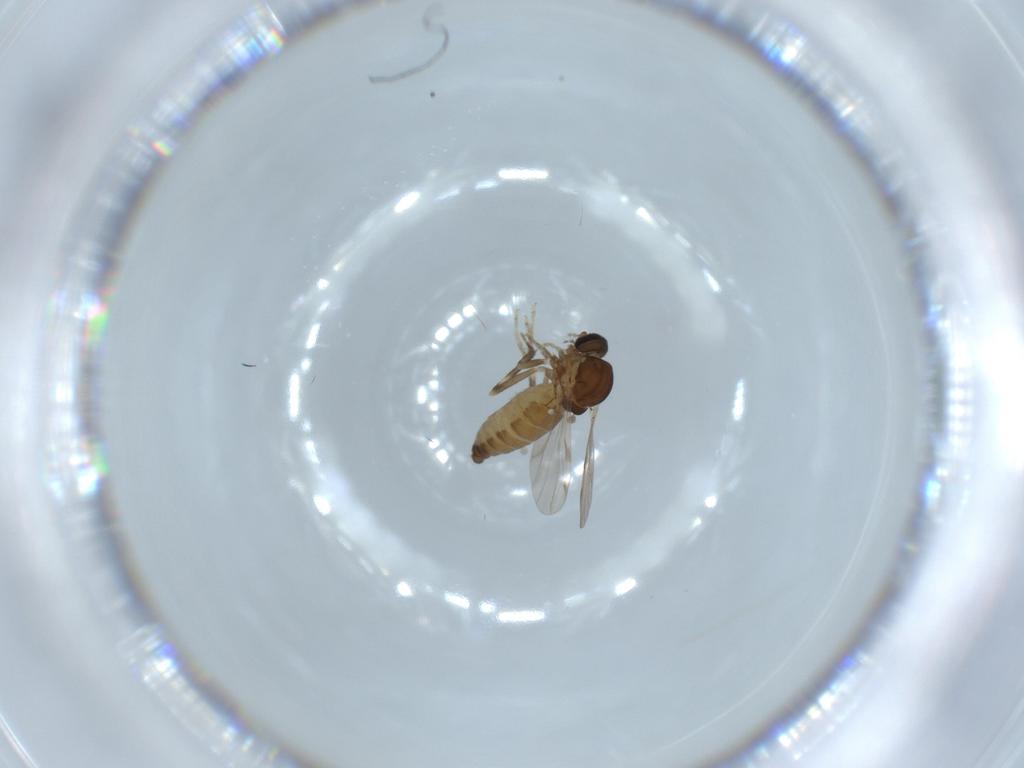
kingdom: Animalia
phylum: Arthropoda
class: Insecta
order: Diptera
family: Ceratopogonidae
